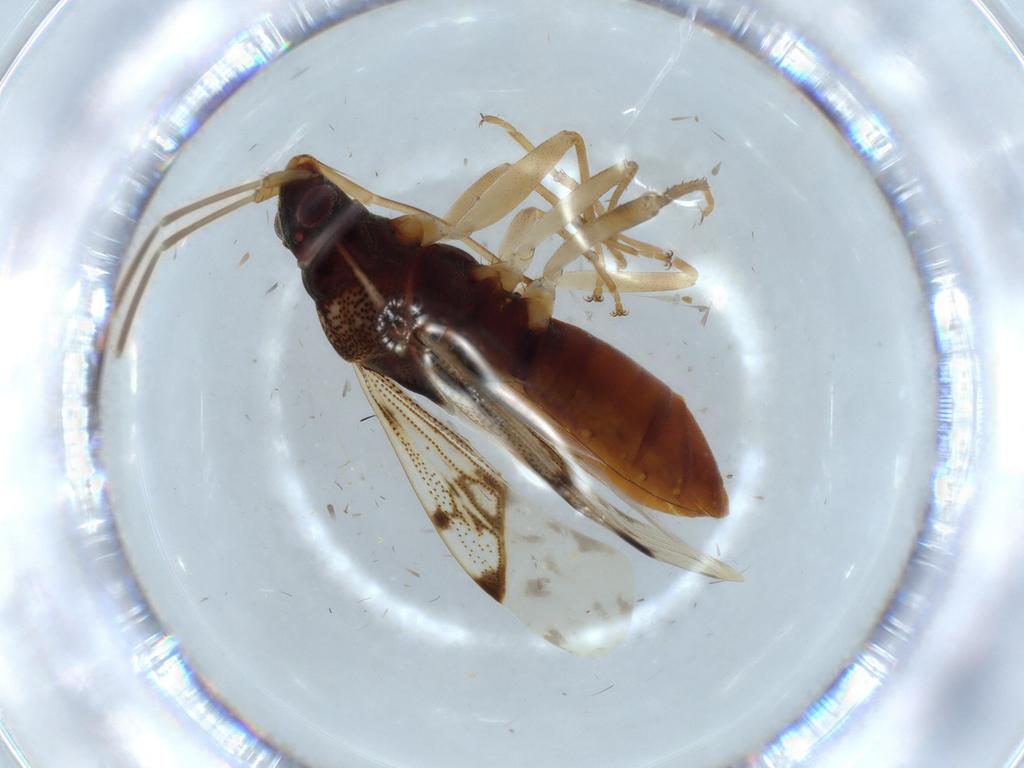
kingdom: Animalia
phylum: Arthropoda
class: Insecta
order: Hemiptera
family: Rhyparochromidae
